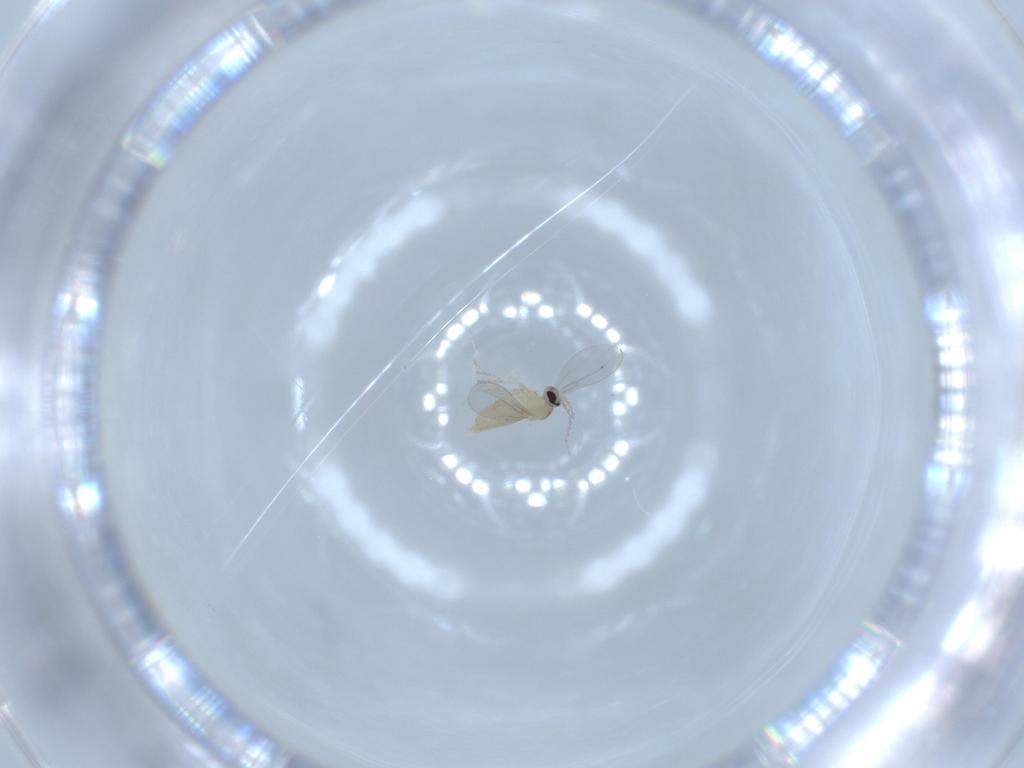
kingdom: Animalia
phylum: Arthropoda
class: Insecta
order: Diptera
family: Cecidomyiidae
